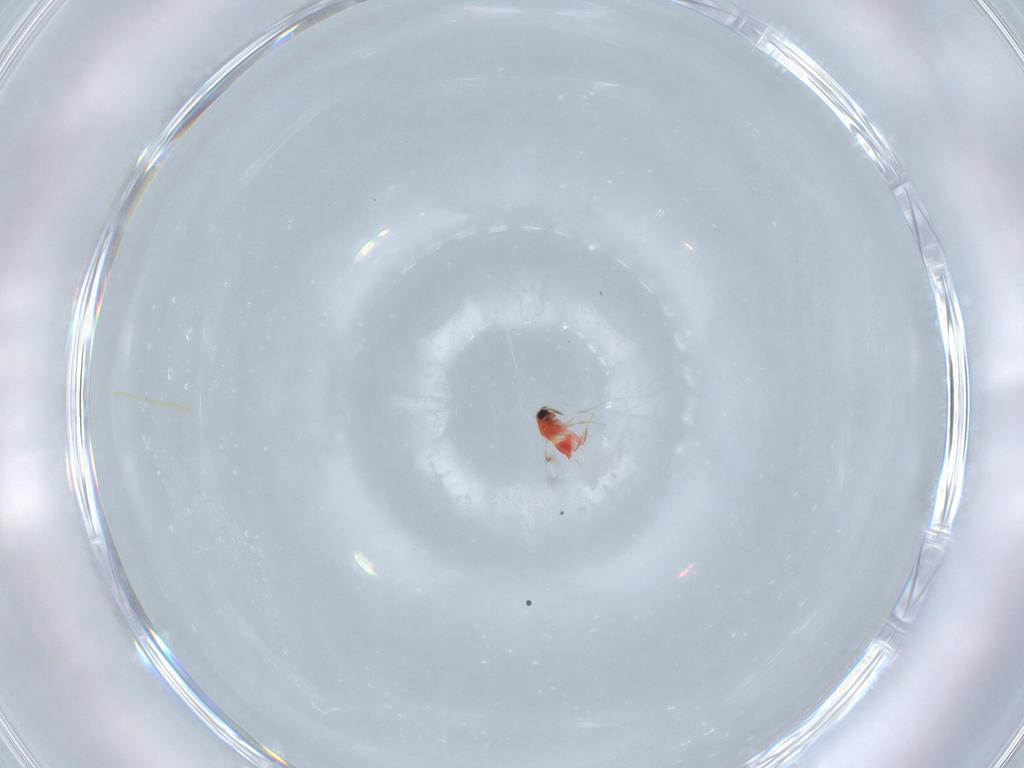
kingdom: Animalia
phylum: Arthropoda
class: Insecta
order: Hymenoptera
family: Trichogrammatidae
